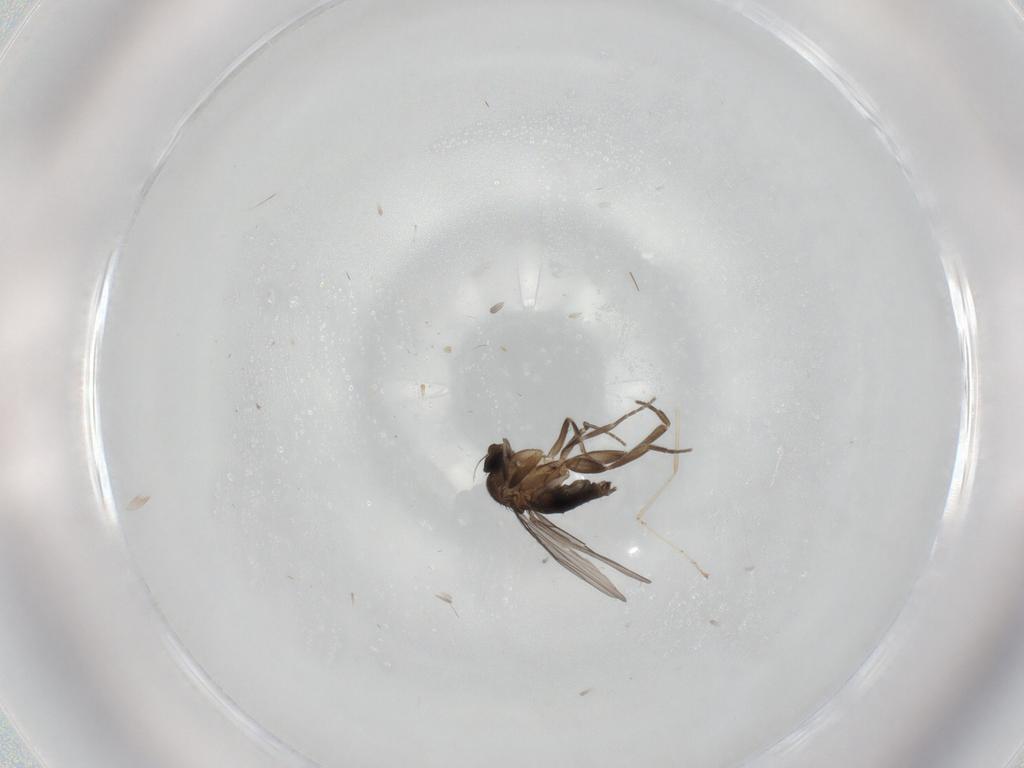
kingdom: Animalia
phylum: Arthropoda
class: Insecta
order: Diptera
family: Cecidomyiidae
